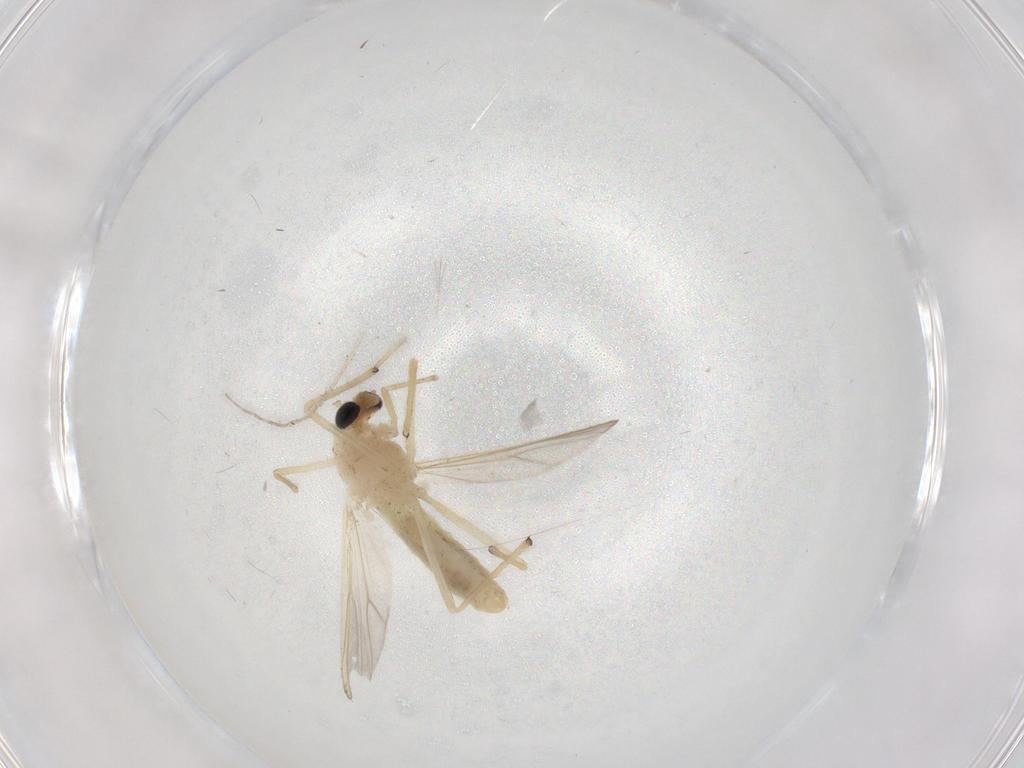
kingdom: Animalia
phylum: Arthropoda
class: Insecta
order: Diptera
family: Chironomidae
